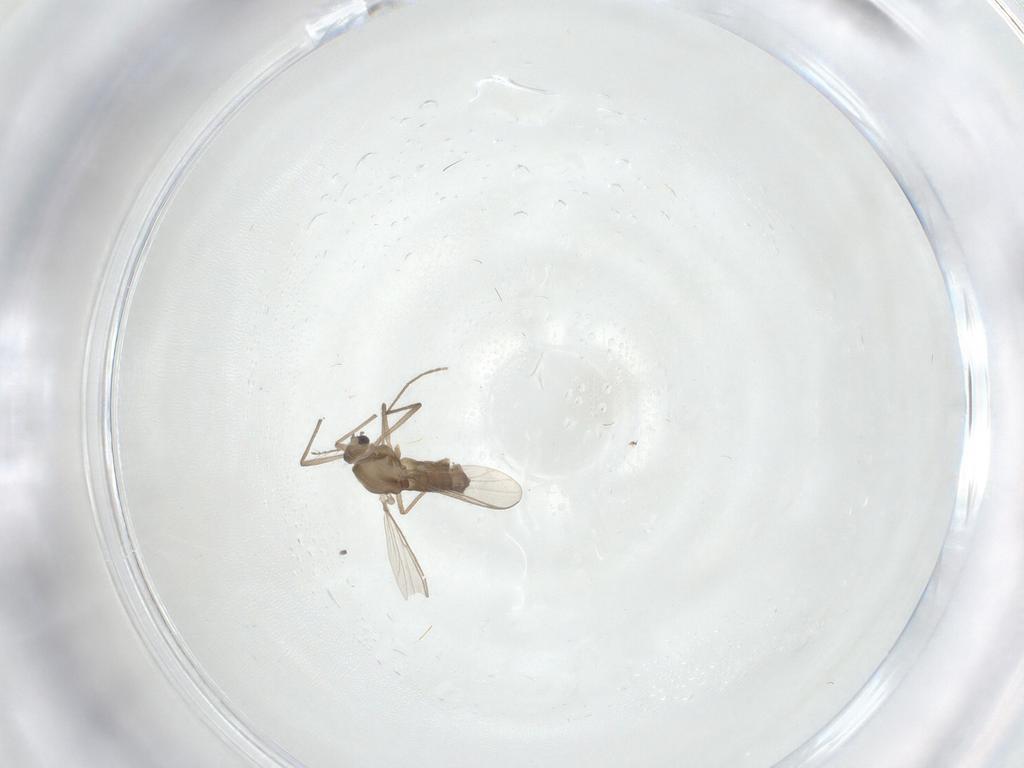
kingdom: Animalia
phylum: Arthropoda
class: Insecta
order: Diptera
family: Chironomidae
